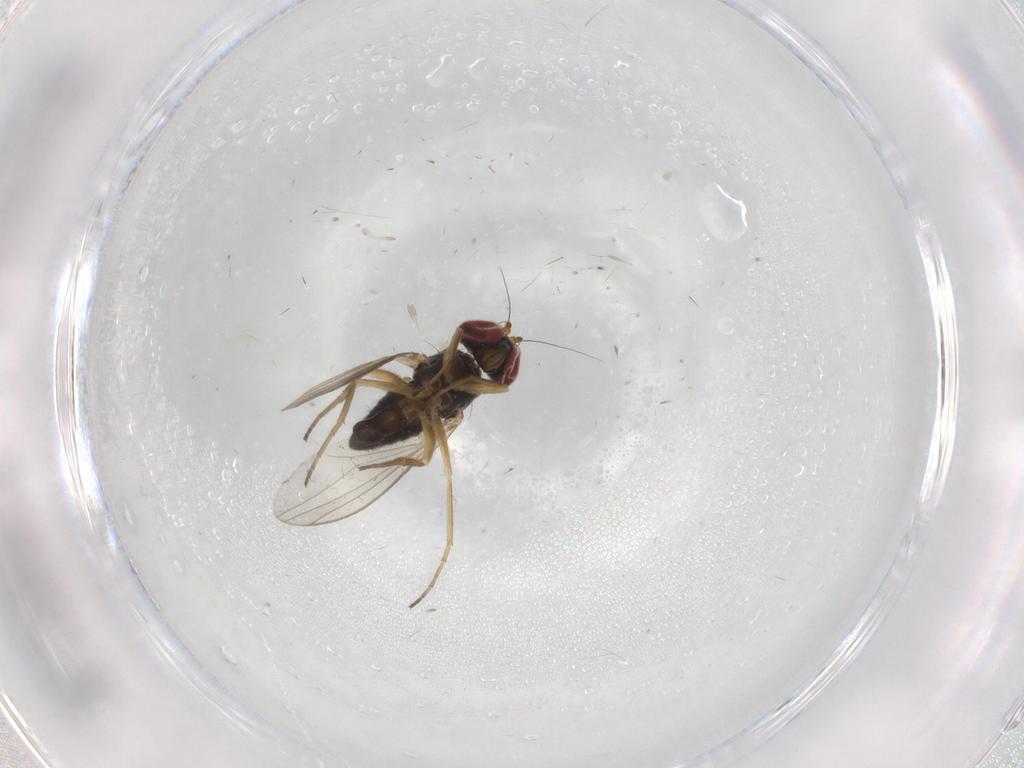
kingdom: Animalia
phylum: Arthropoda
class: Insecta
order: Diptera
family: Dolichopodidae
